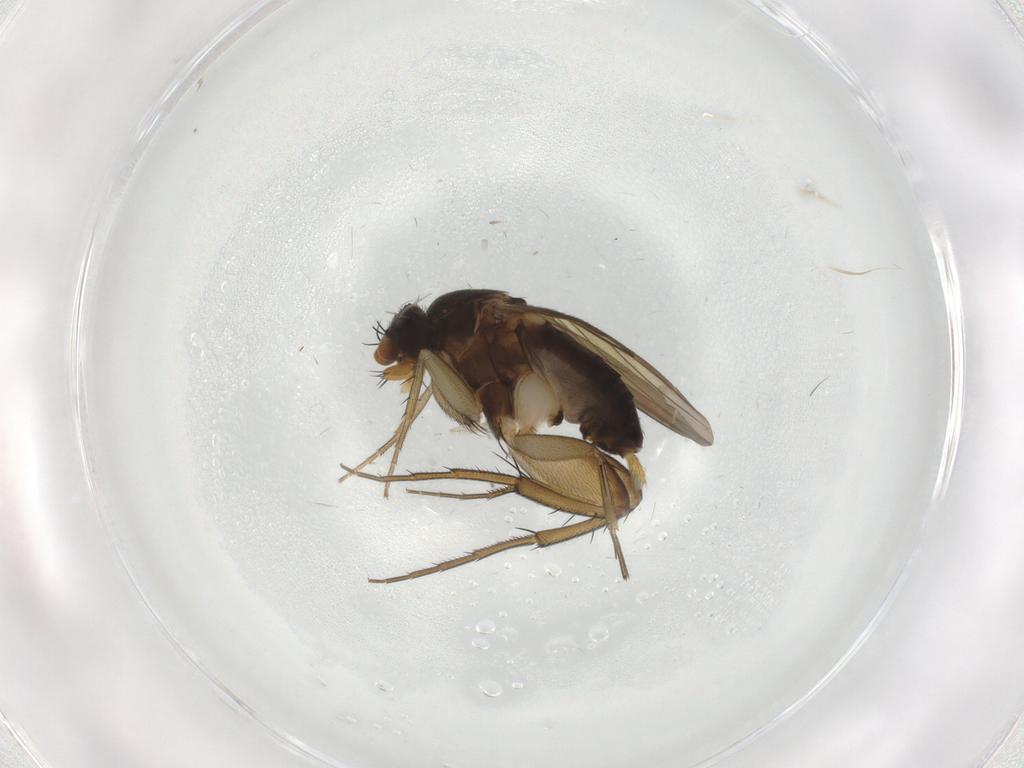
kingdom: Animalia
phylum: Arthropoda
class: Insecta
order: Diptera
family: Phoridae
